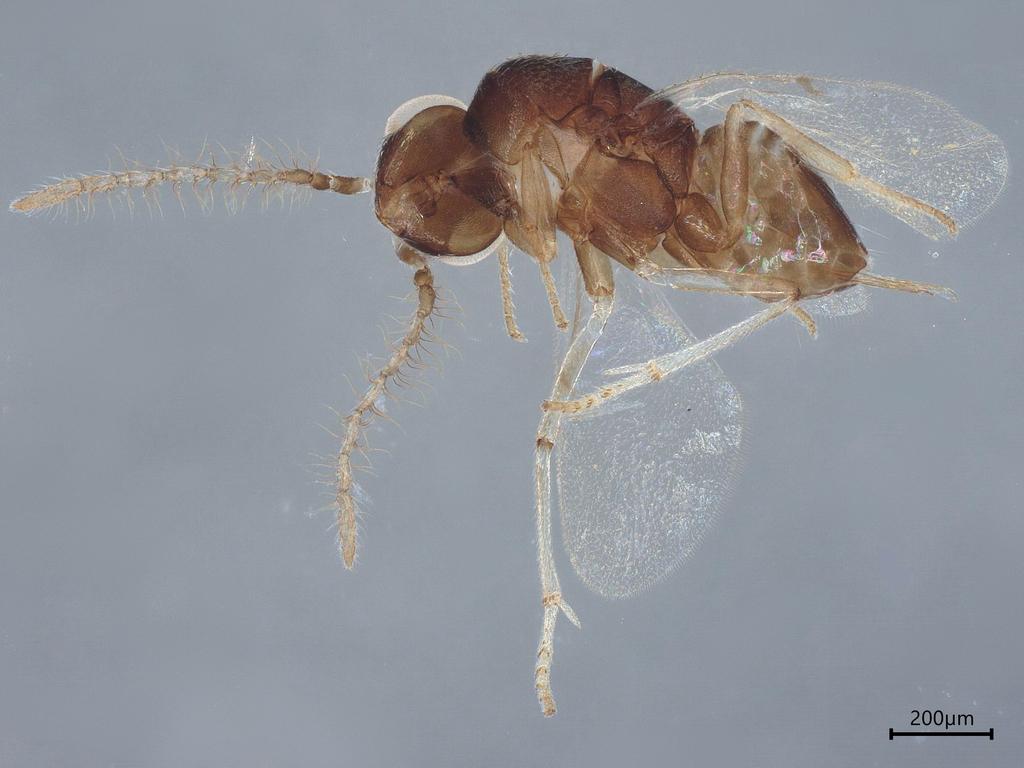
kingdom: Animalia
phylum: Arthropoda
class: Insecta
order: Hymenoptera
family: Encyrtidae
